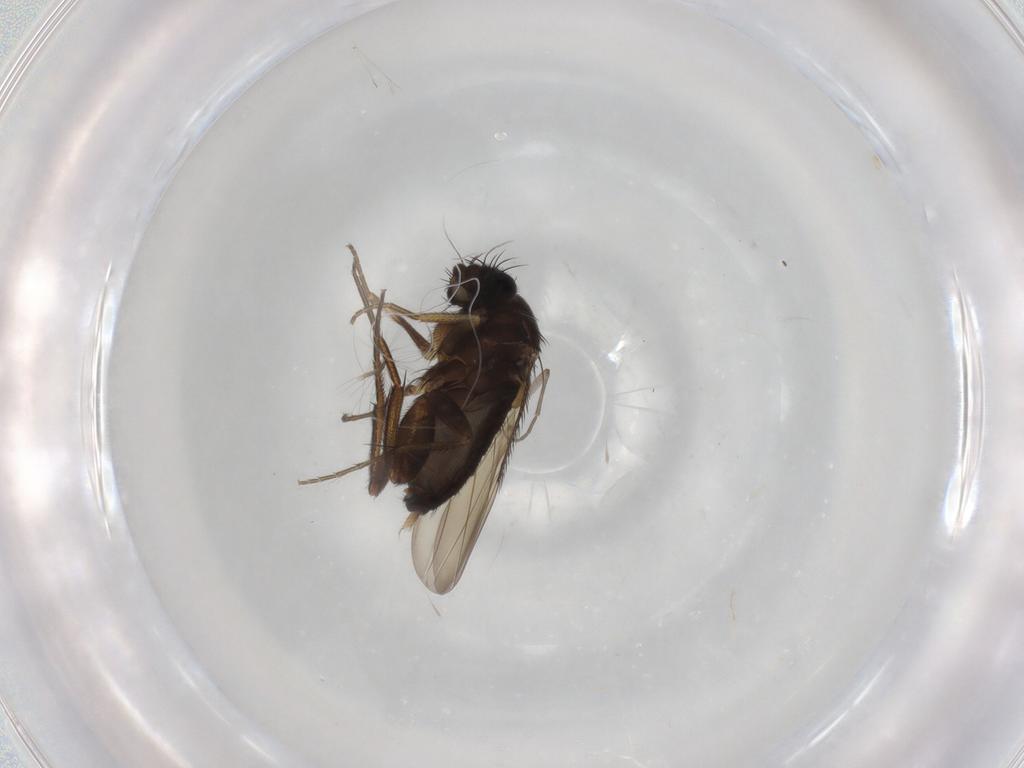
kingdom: Animalia
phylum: Arthropoda
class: Insecta
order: Diptera
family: Sciaridae
